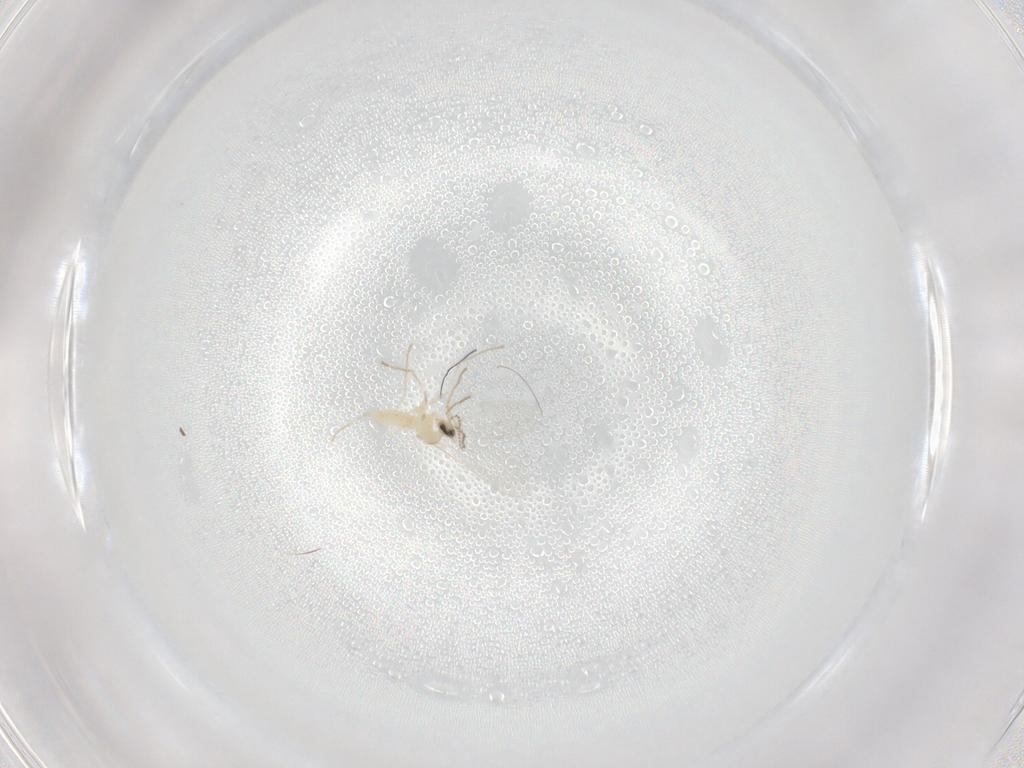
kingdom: Animalia
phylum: Arthropoda
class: Insecta
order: Diptera
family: Cecidomyiidae
